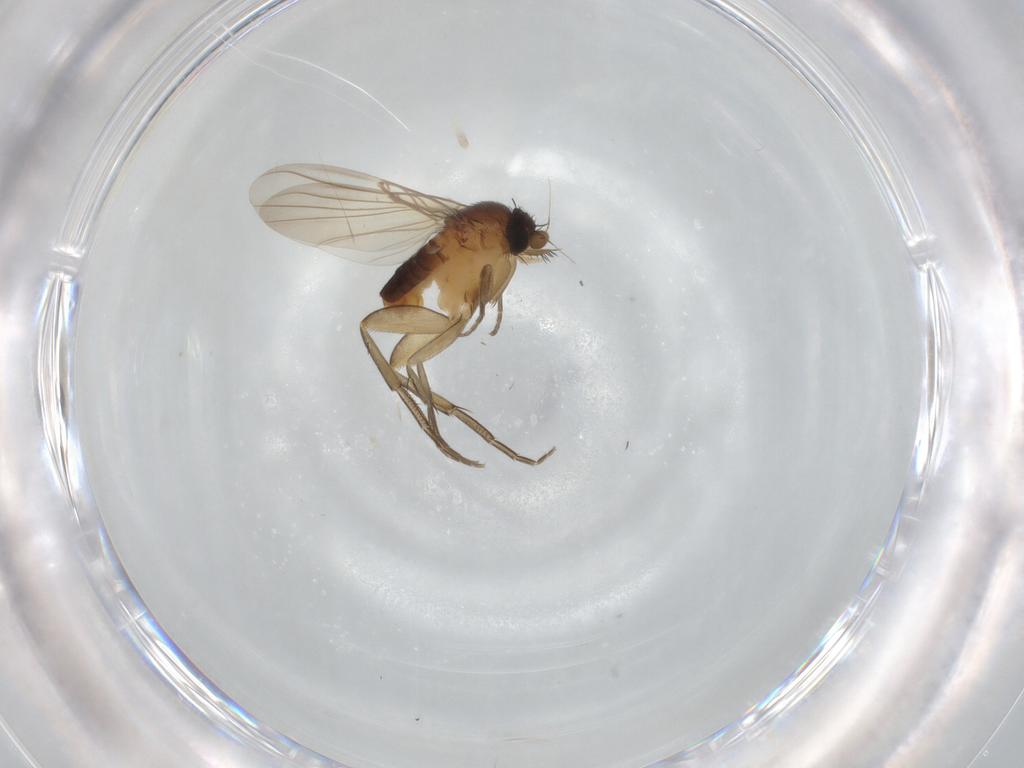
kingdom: Animalia
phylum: Arthropoda
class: Insecta
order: Diptera
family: Phoridae
